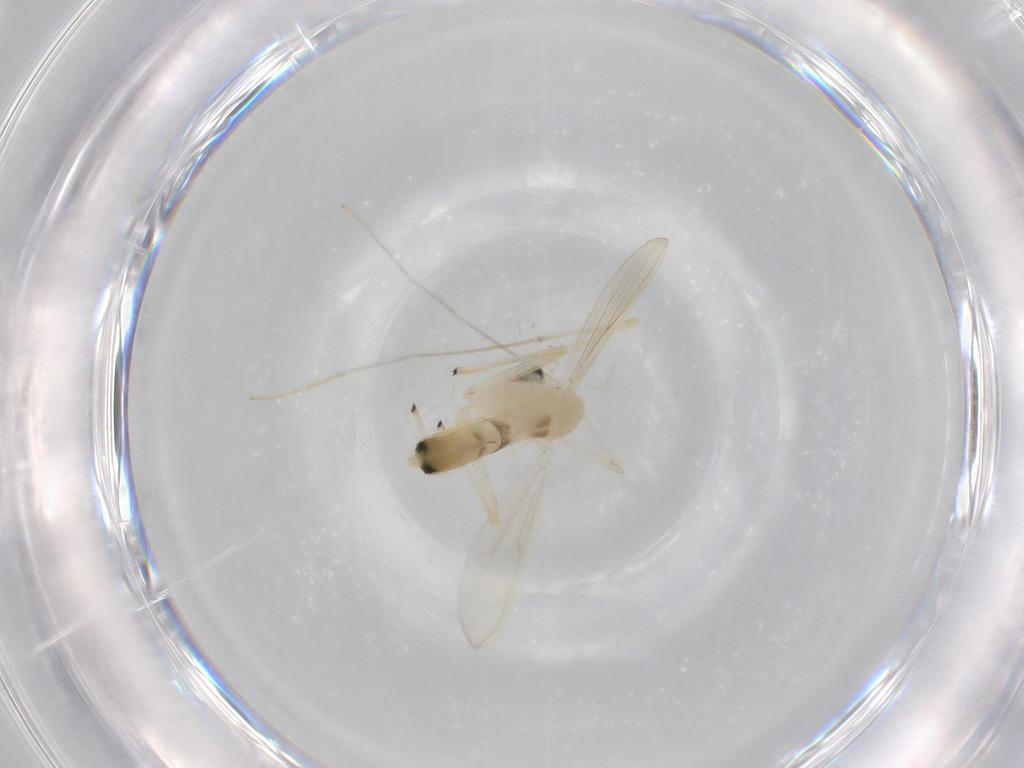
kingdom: Animalia
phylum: Arthropoda
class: Insecta
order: Diptera
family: Chironomidae
